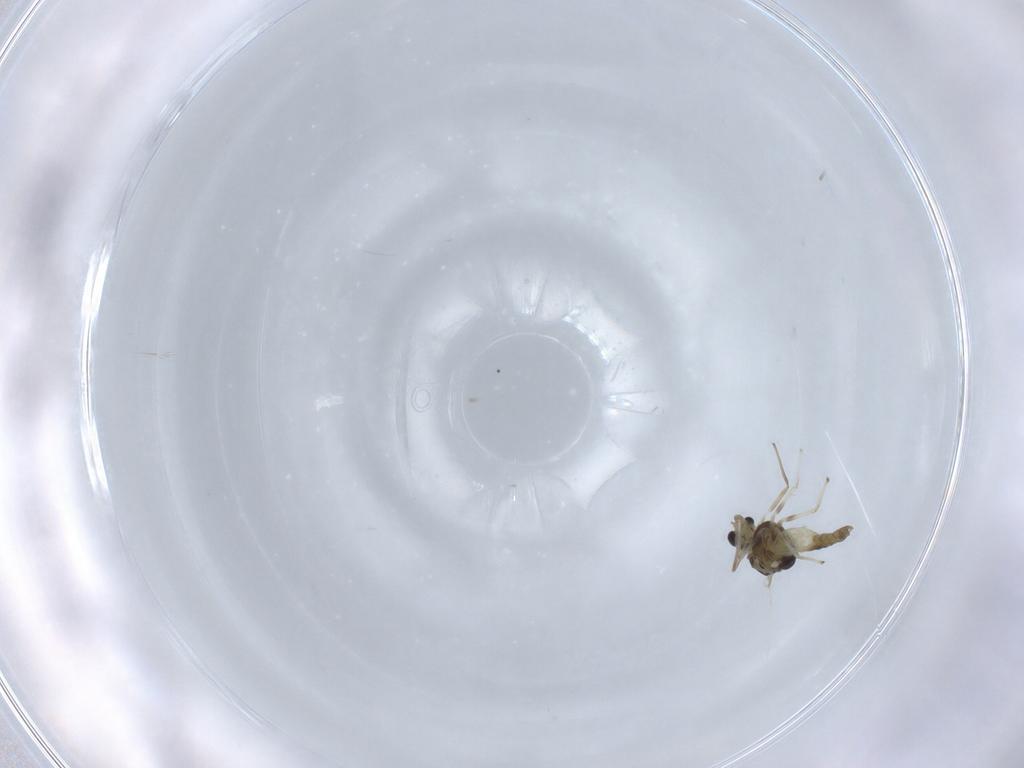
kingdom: Animalia
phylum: Arthropoda
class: Insecta
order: Diptera
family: Chironomidae
